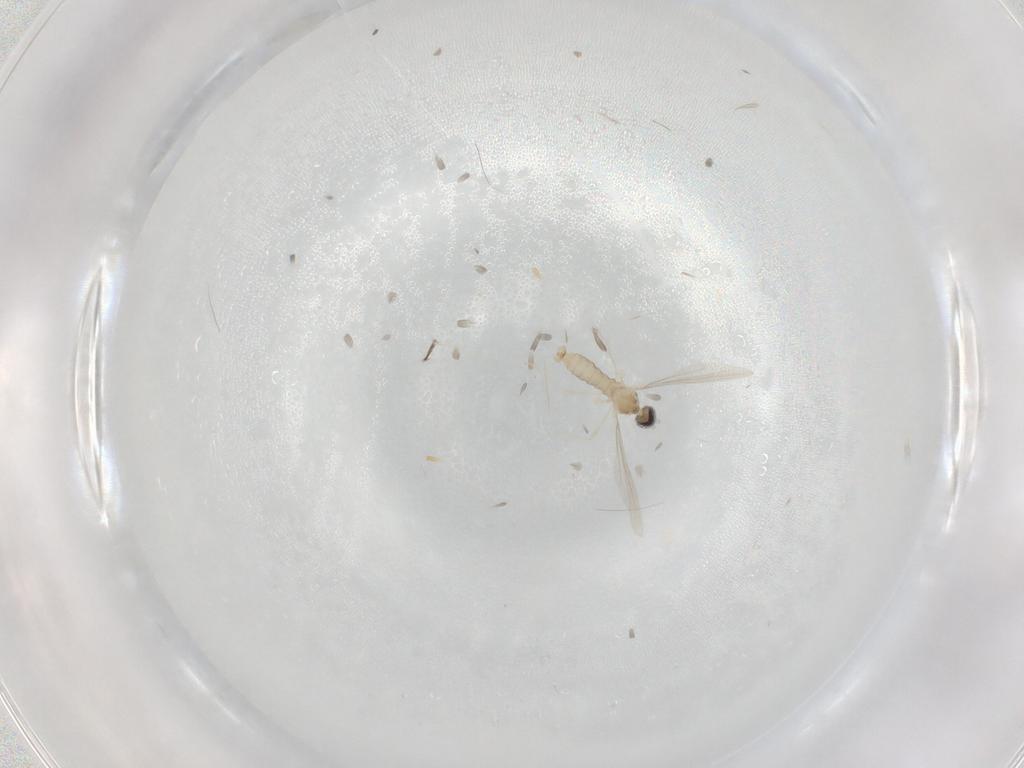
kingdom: Animalia
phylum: Arthropoda
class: Insecta
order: Diptera
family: Cecidomyiidae
